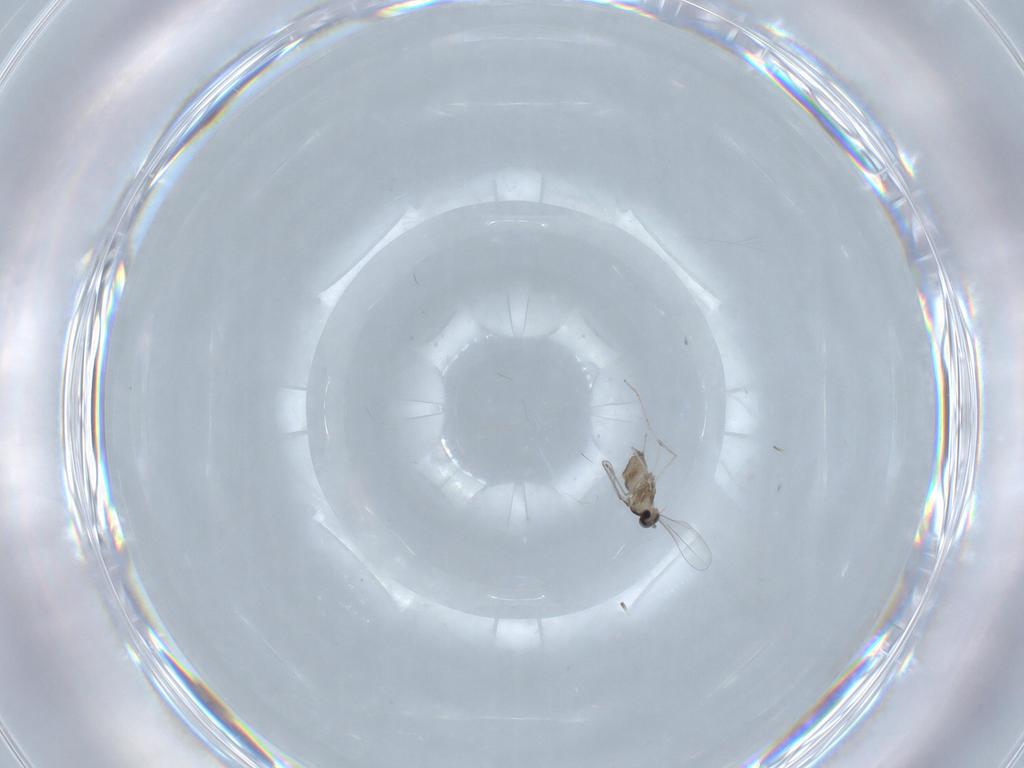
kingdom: Animalia
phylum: Arthropoda
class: Insecta
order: Diptera
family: Cecidomyiidae
